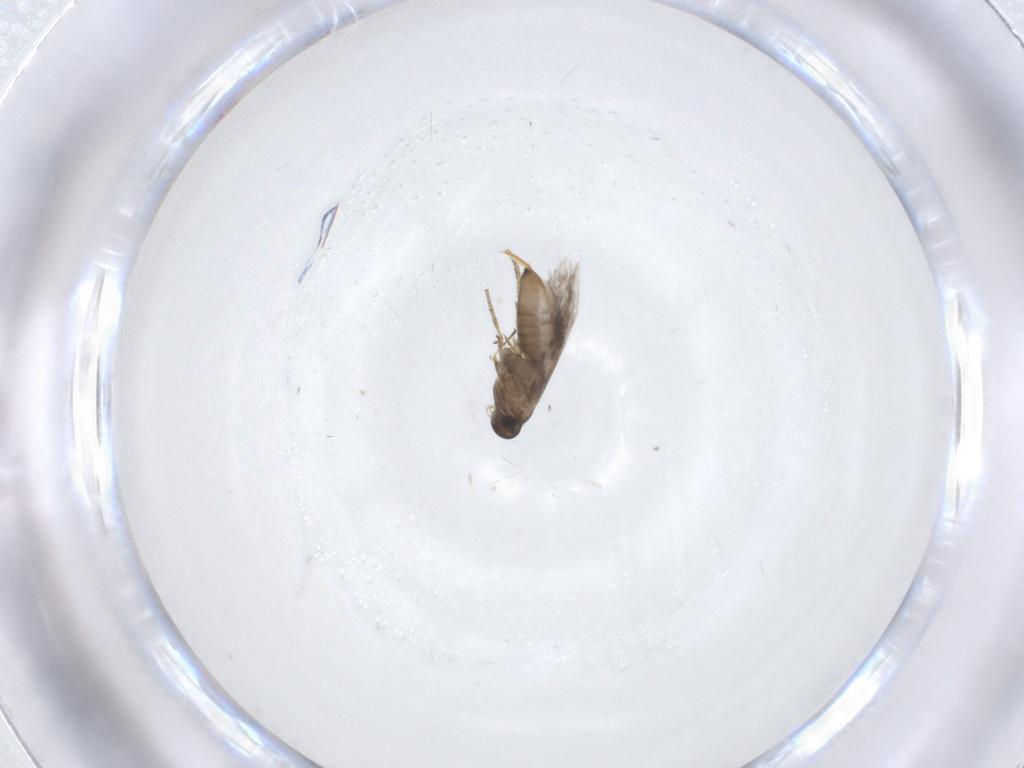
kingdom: Animalia
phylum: Arthropoda
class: Insecta
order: Lepidoptera
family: Heliozelidae
